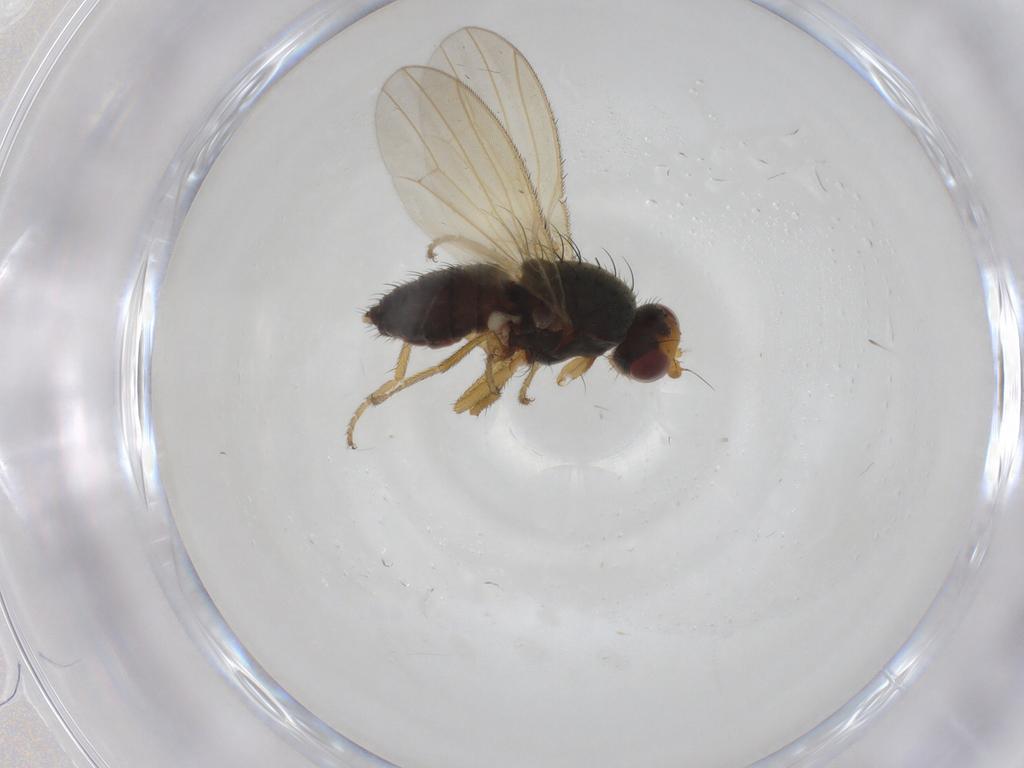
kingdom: Animalia
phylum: Arthropoda
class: Insecta
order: Diptera
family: Heleomyzidae
